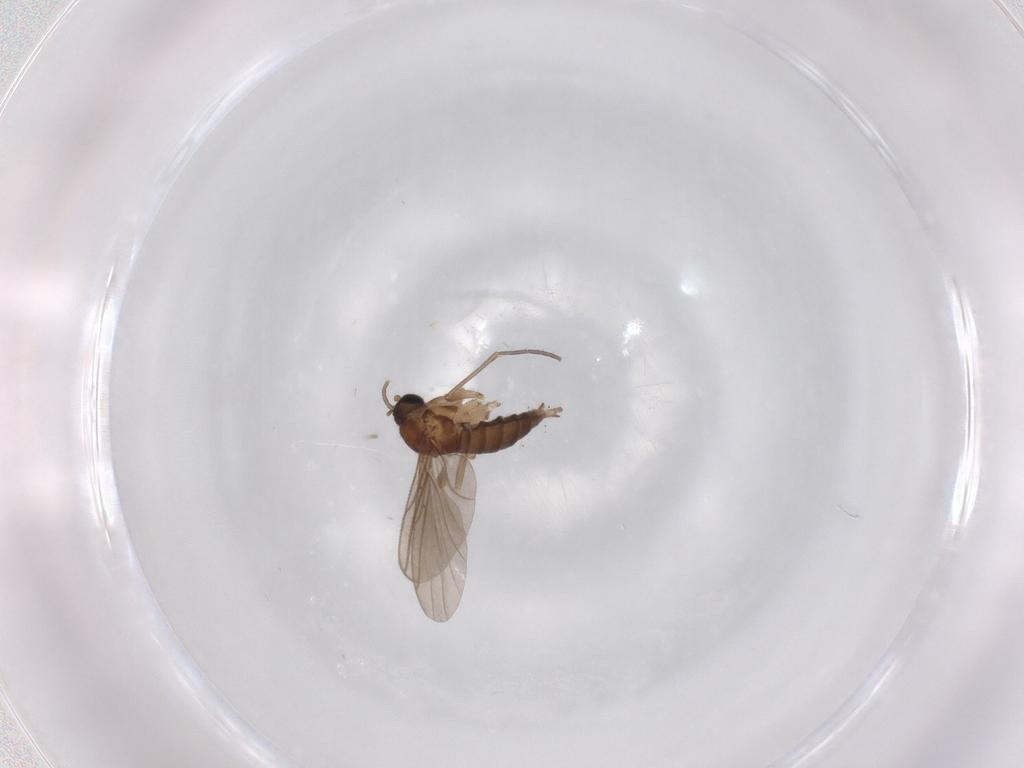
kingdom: Animalia
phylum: Arthropoda
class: Insecta
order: Diptera
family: Sciaridae
